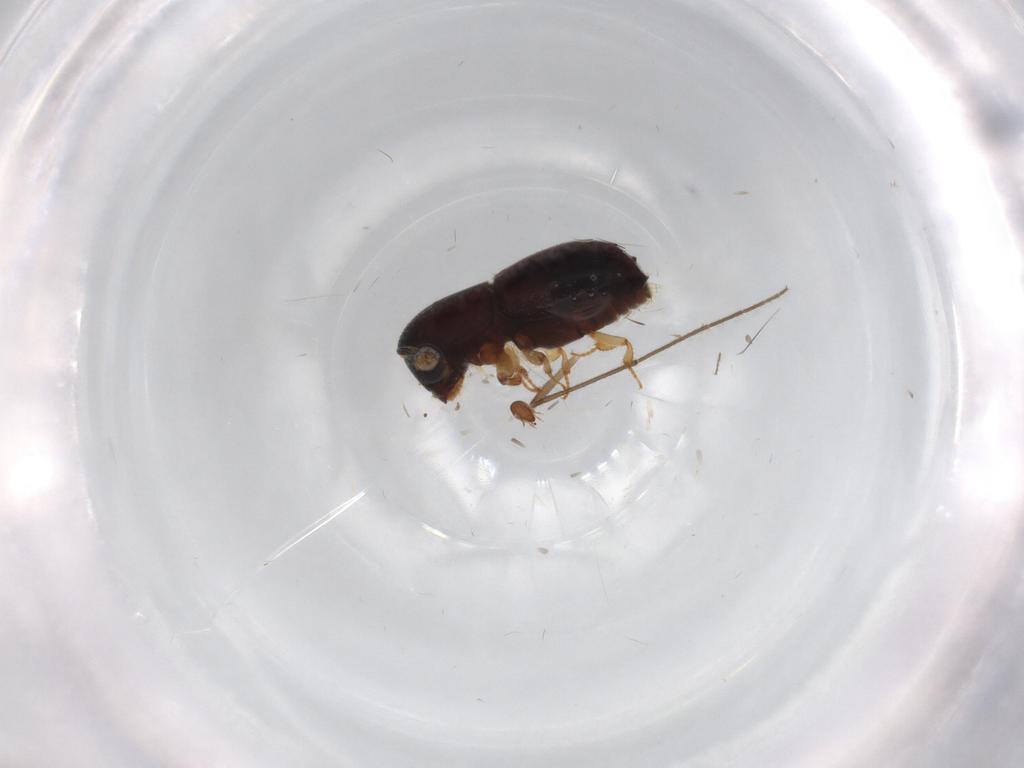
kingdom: Animalia
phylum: Arthropoda
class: Insecta
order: Coleoptera
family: Curculionidae
